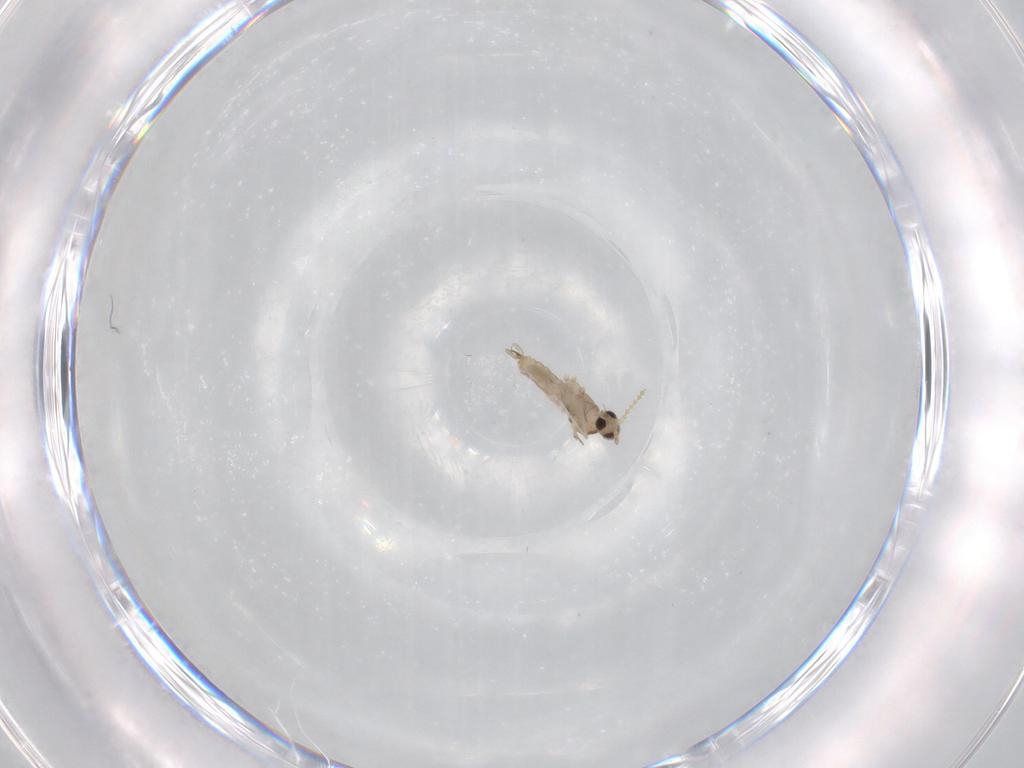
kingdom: Animalia
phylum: Arthropoda
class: Insecta
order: Diptera
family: Cecidomyiidae
